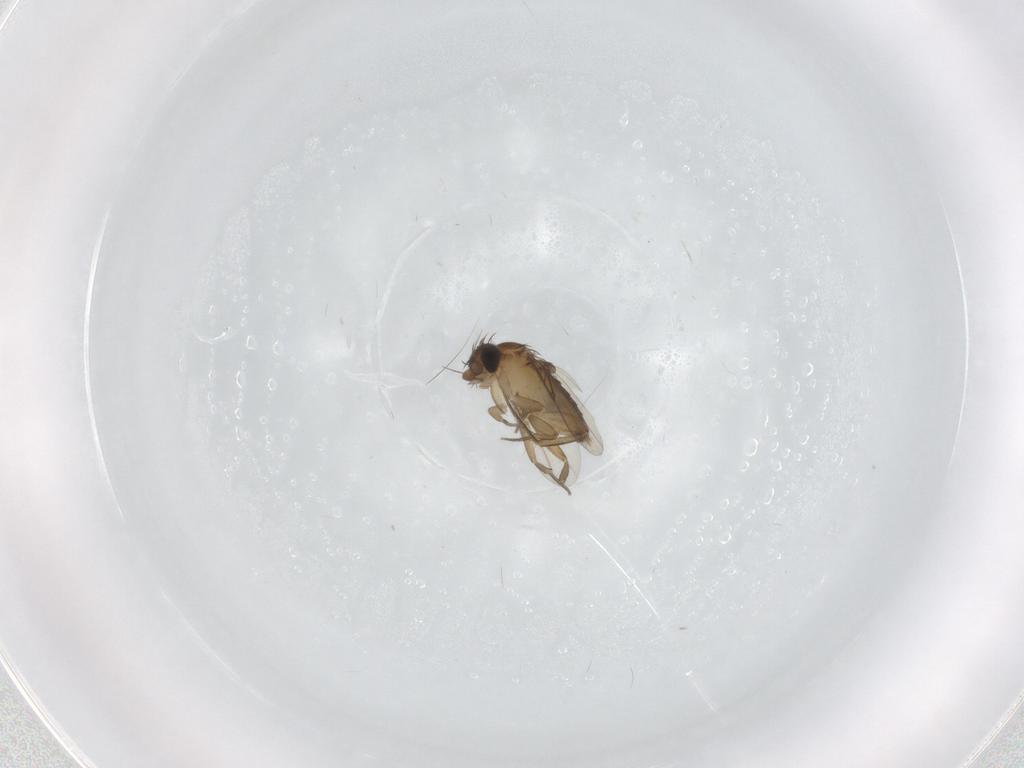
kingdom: Animalia
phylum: Arthropoda
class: Insecta
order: Diptera
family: Phoridae
